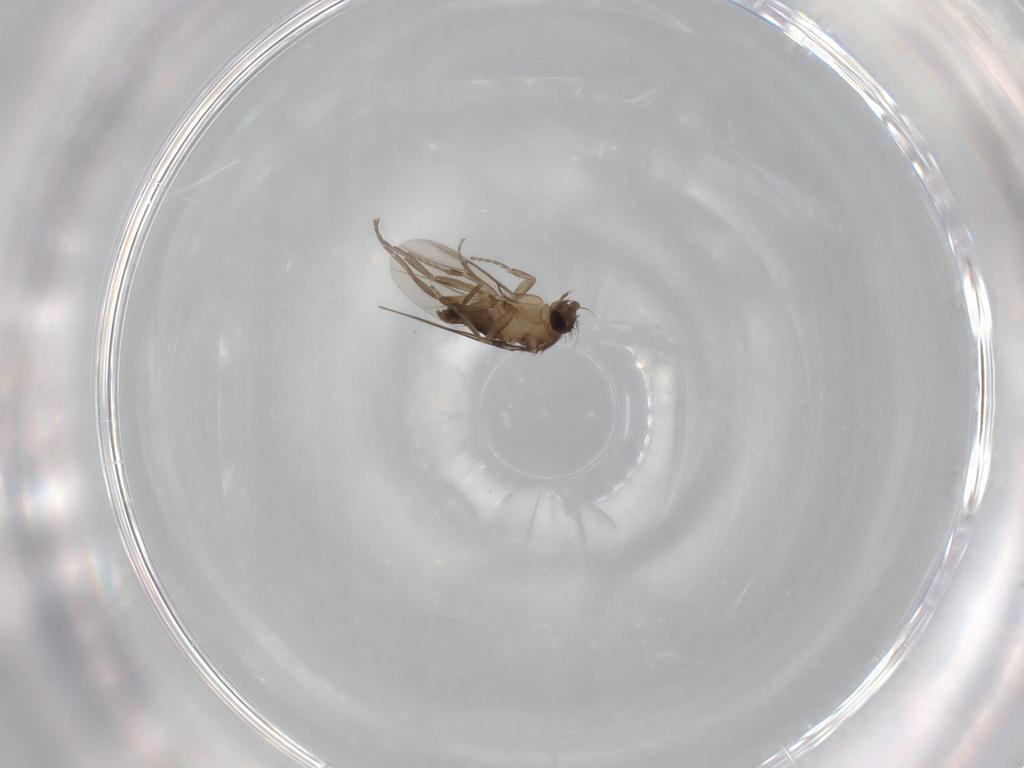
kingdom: Animalia
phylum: Arthropoda
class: Insecta
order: Diptera
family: Phoridae
